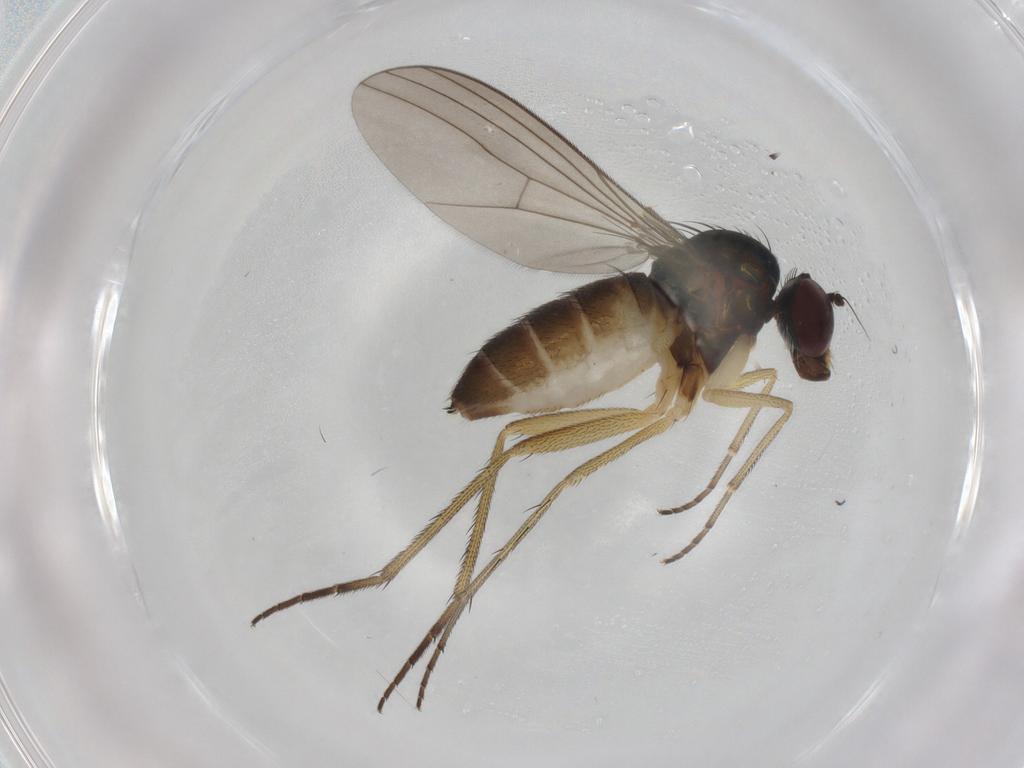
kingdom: Animalia
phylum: Arthropoda
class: Insecta
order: Diptera
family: Dolichopodidae
